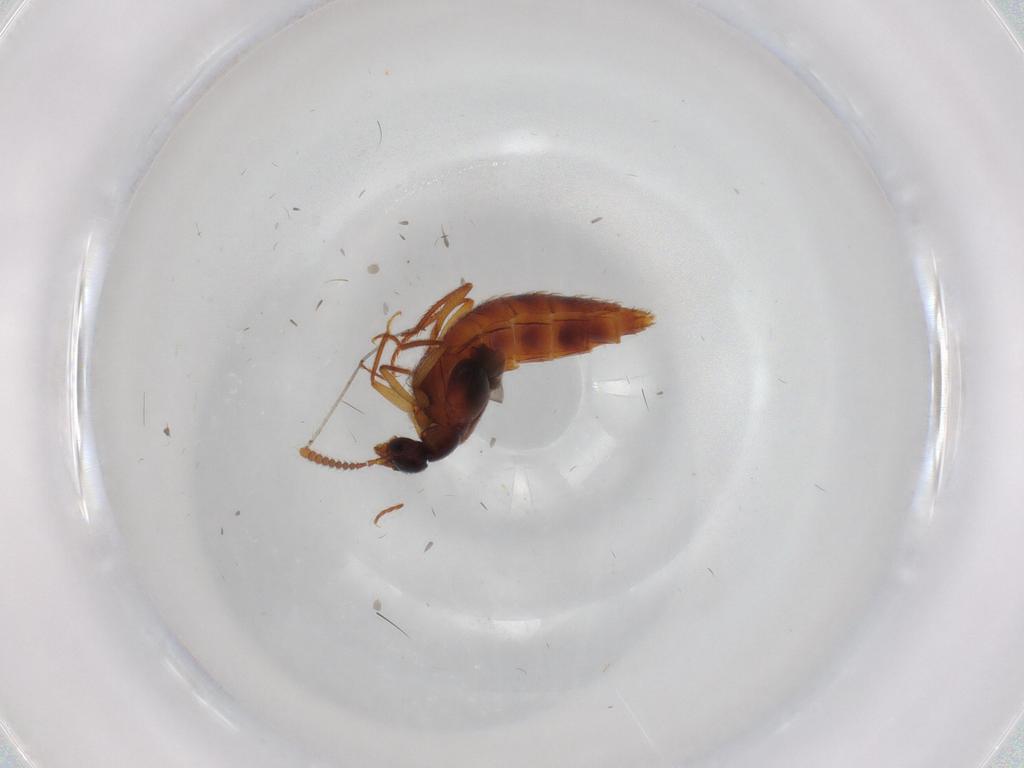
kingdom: Animalia
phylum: Arthropoda
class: Insecta
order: Coleoptera
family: Staphylinidae
